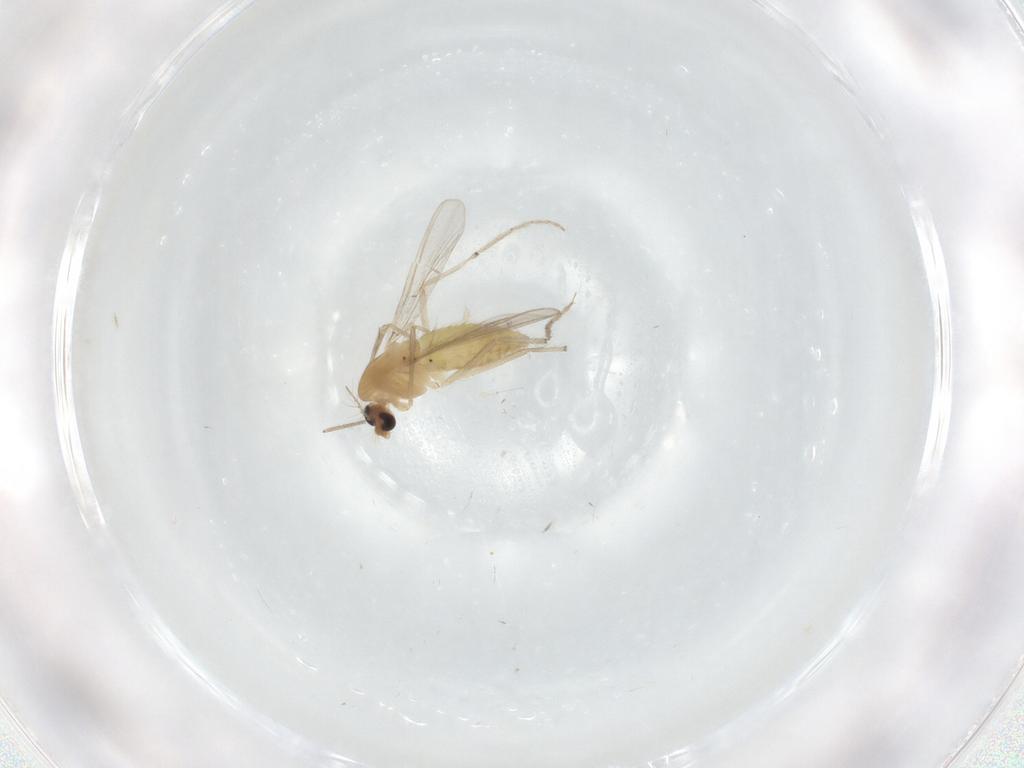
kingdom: Animalia
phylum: Arthropoda
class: Insecta
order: Diptera
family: Chironomidae
